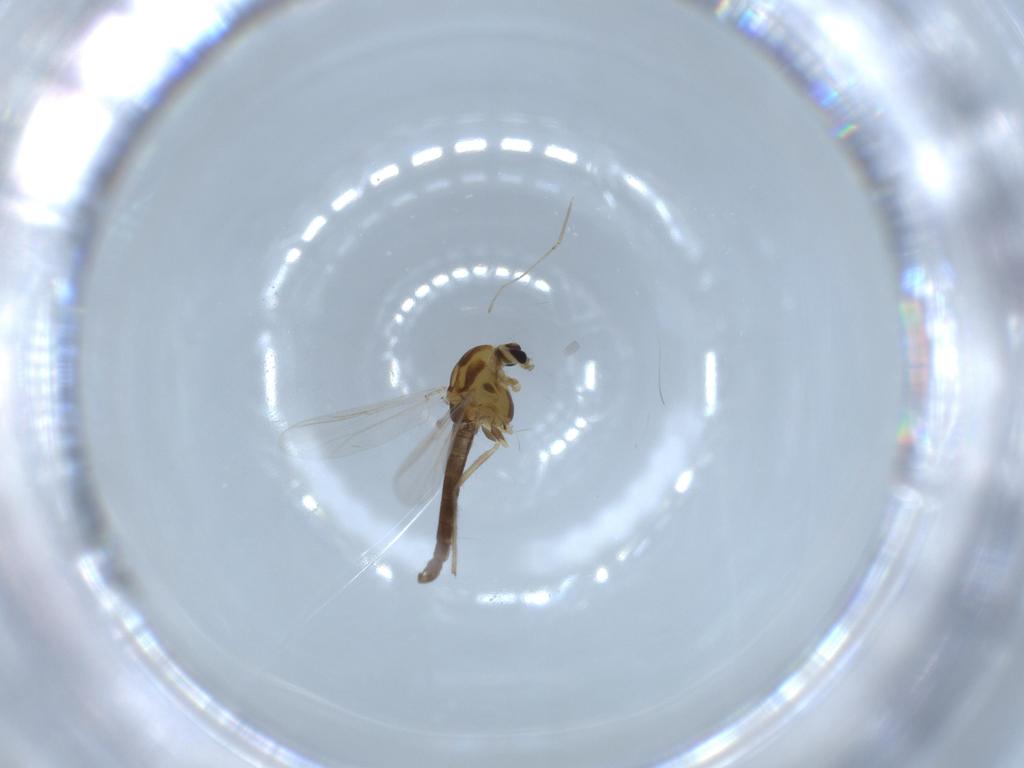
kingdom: Animalia
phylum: Arthropoda
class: Insecta
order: Diptera
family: Chironomidae
